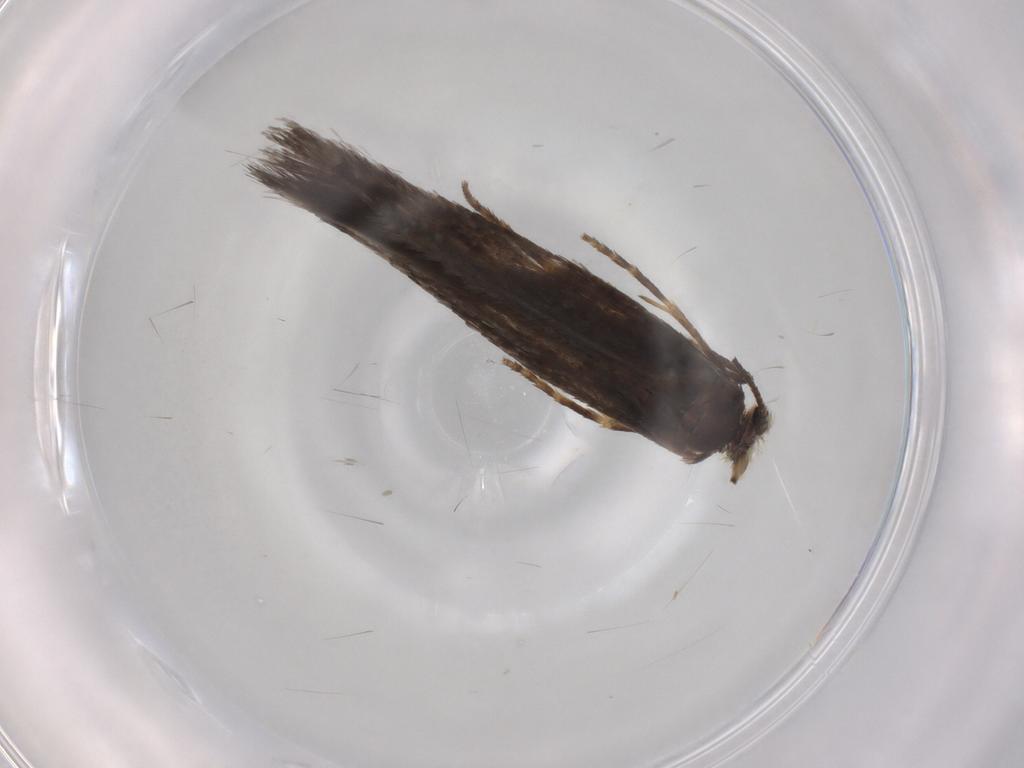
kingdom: Animalia
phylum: Arthropoda
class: Insecta
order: Lepidoptera
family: Nepticulidae
